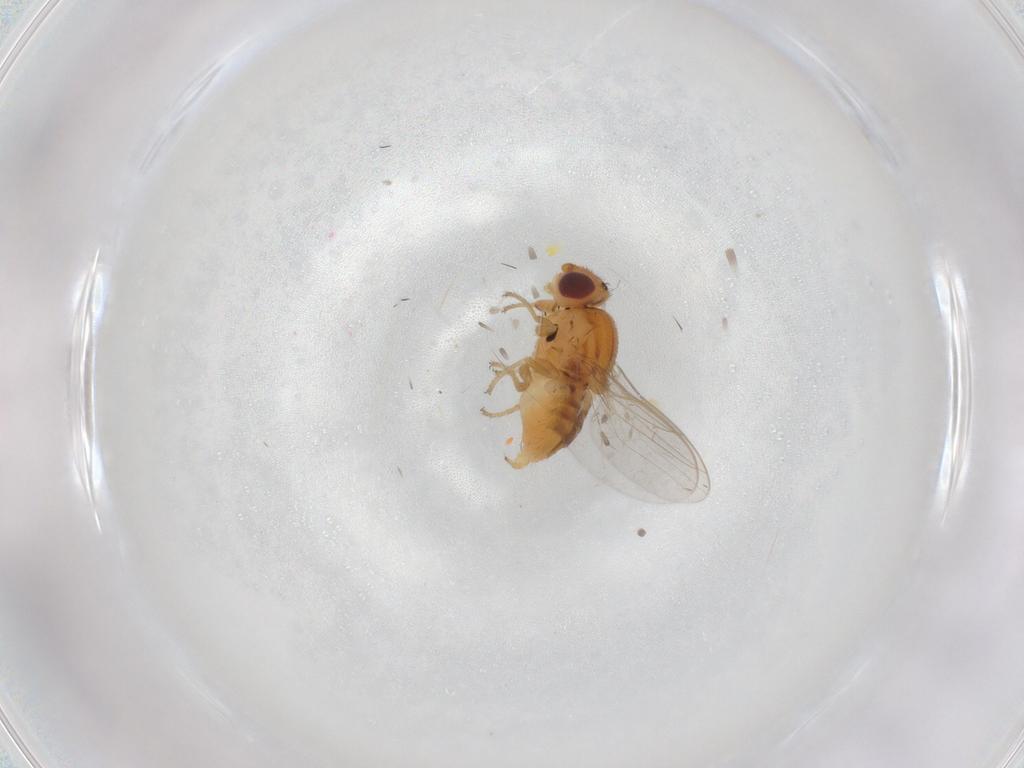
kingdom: Animalia
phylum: Arthropoda
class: Insecta
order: Diptera
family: Chloropidae
